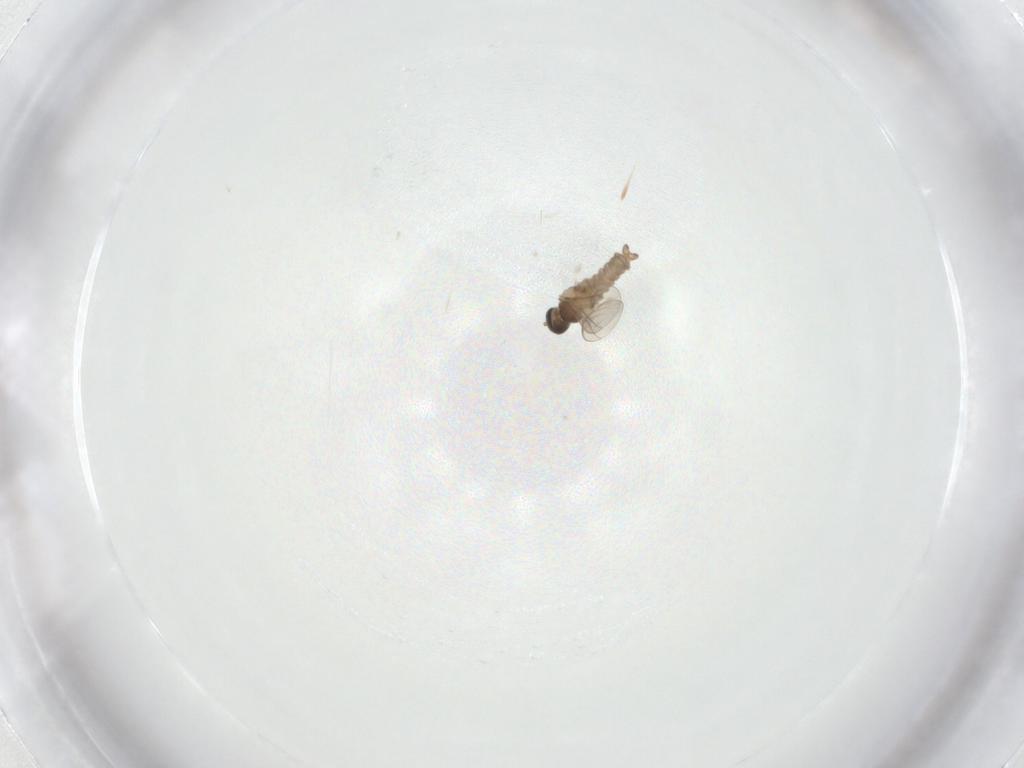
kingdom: Animalia
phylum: Arthropoda
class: Insecta
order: Diptera
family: Cecidomyiidae
